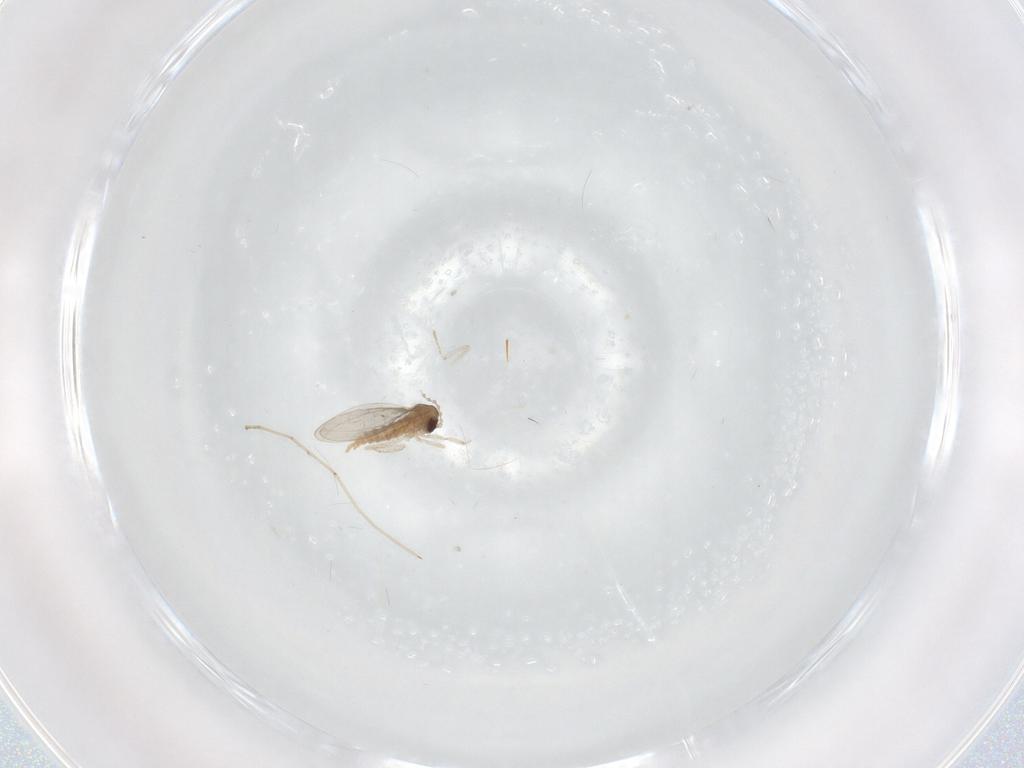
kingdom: Animalia
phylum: Arthropoda
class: Insecta
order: Diptera
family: Cecidomyiidae
